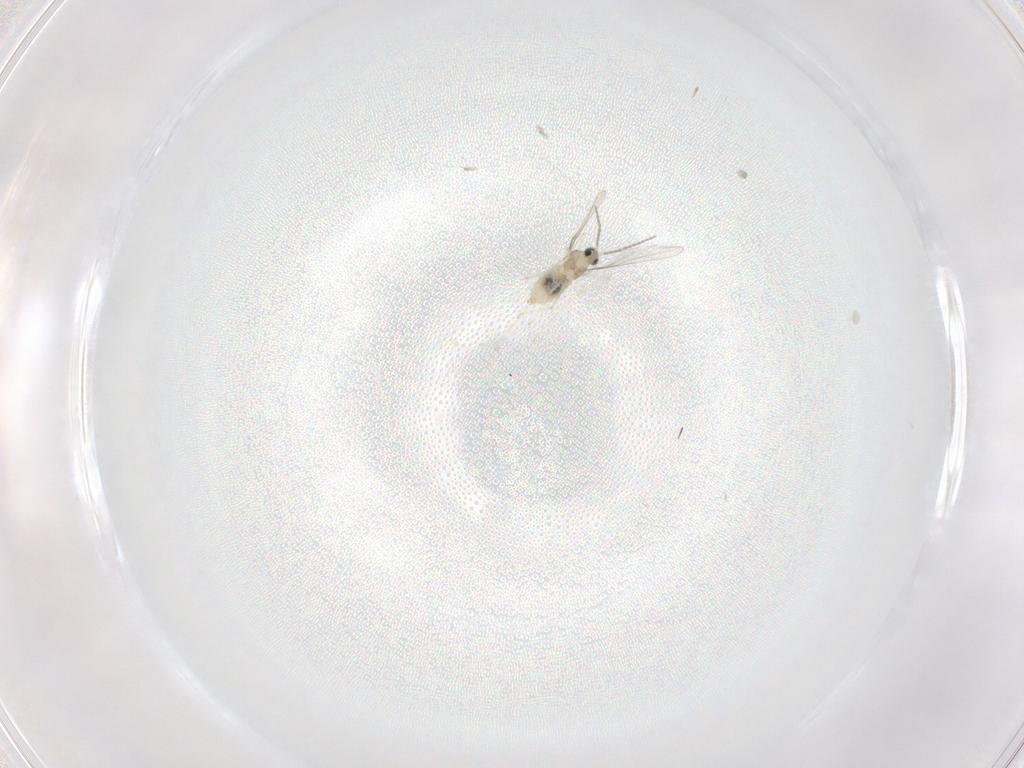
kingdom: Animalia
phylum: Arthropoda
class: Insecta
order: Diptera
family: Cecidomyiidae
